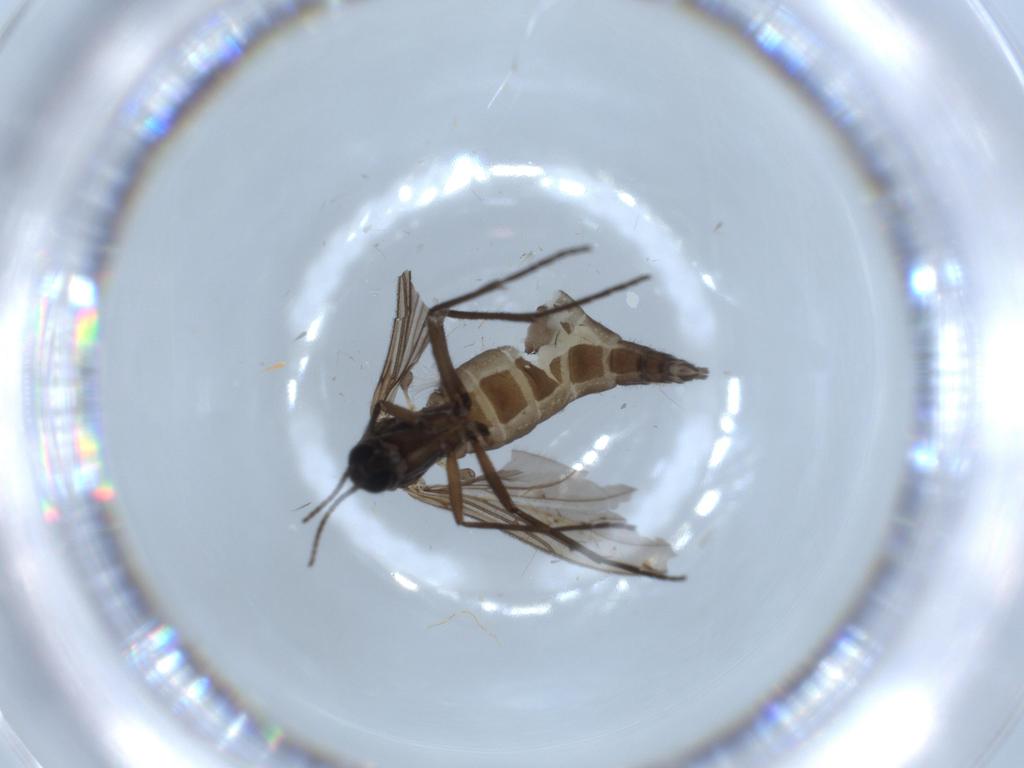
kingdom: Animalia
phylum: Arthropoda
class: Insecta
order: Diptera
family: Sciaridae
